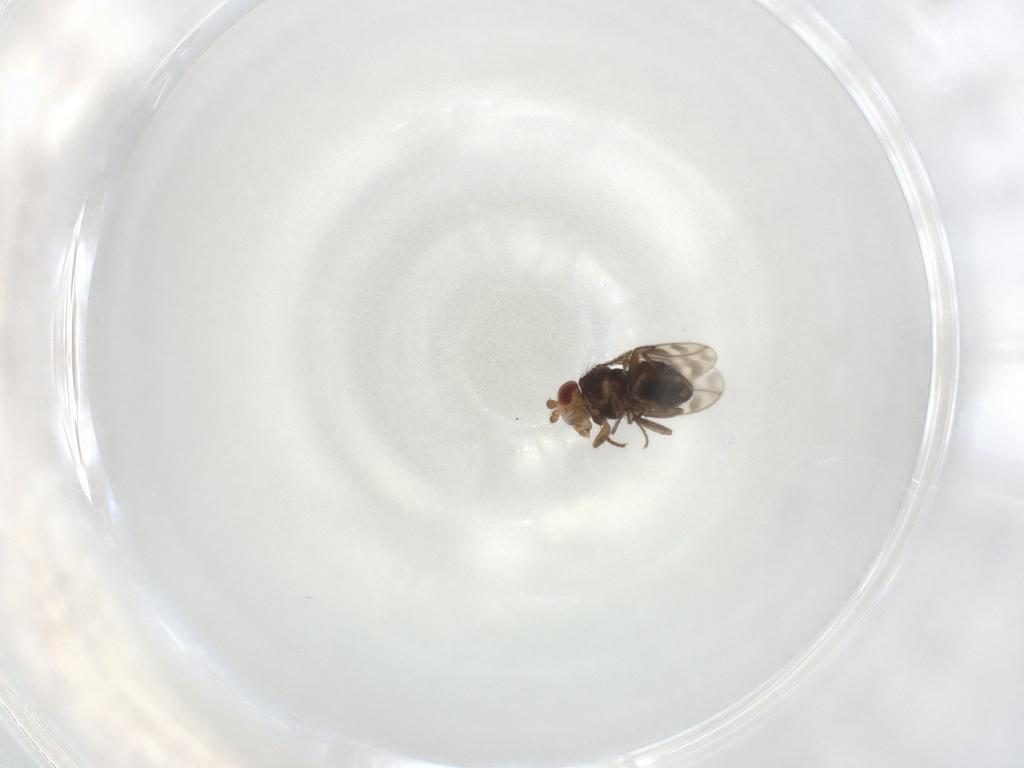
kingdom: Animalia
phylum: Arthropoda
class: Insecta
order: Diptera
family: Sphaeroceridae
